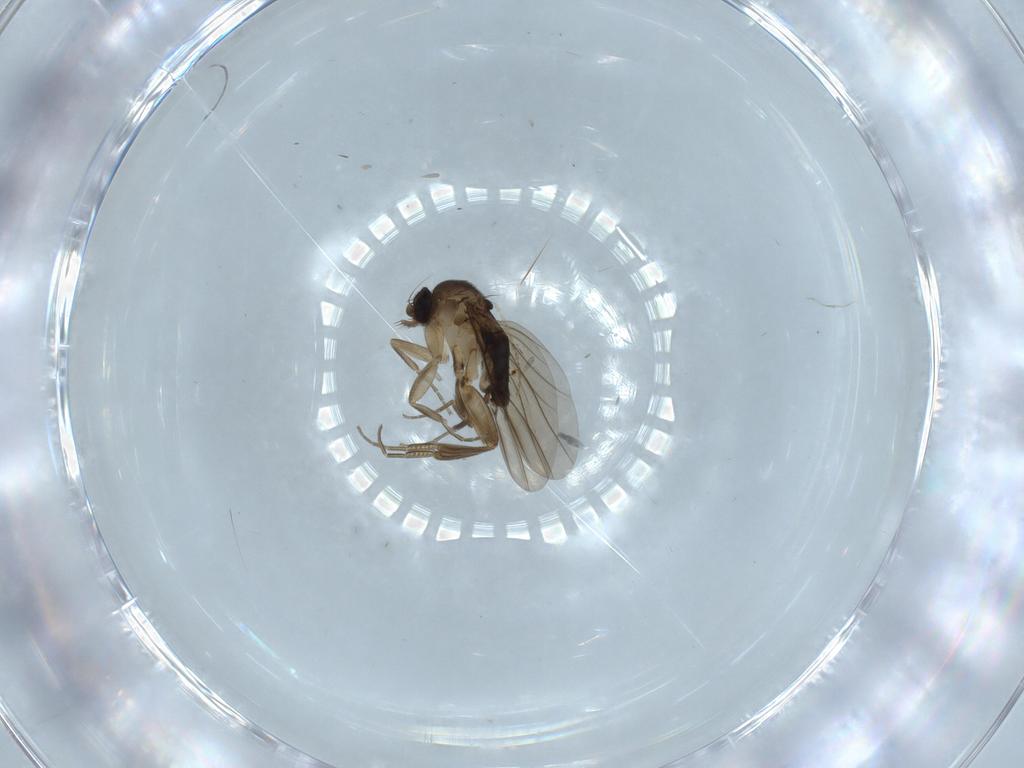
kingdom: Animalia
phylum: Arthropoda
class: Insecta
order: Diptera
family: Phoridae
